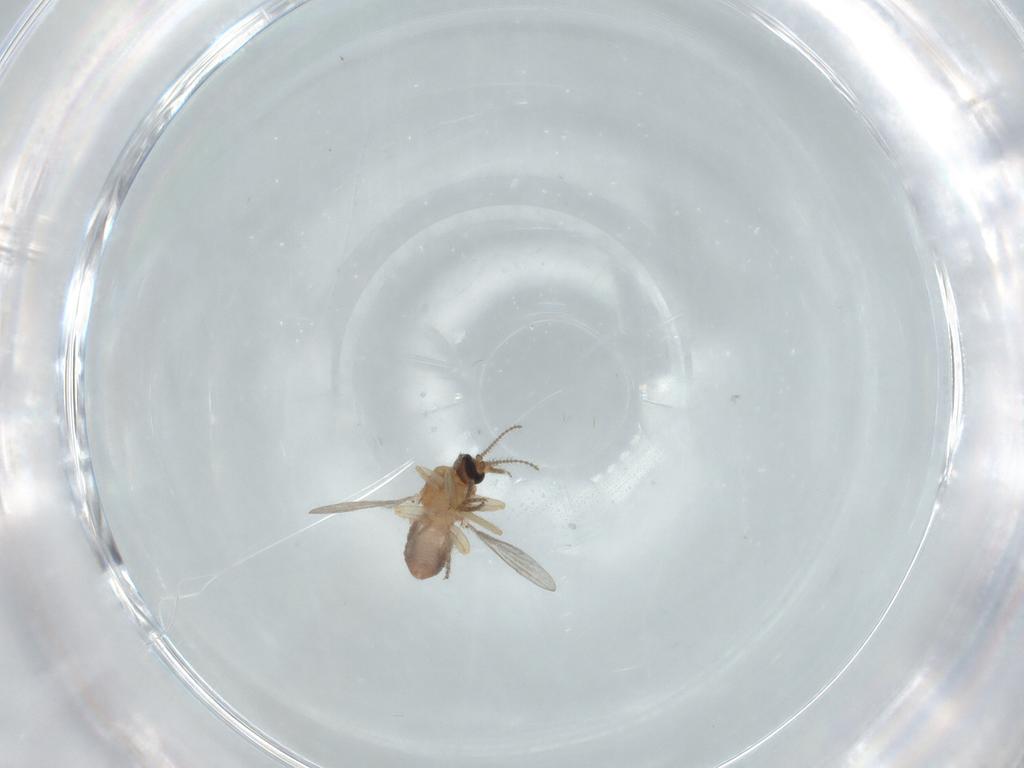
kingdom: Animalia
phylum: Arthropoda
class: Insecta
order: Diptera
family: Ceratopogonidae
